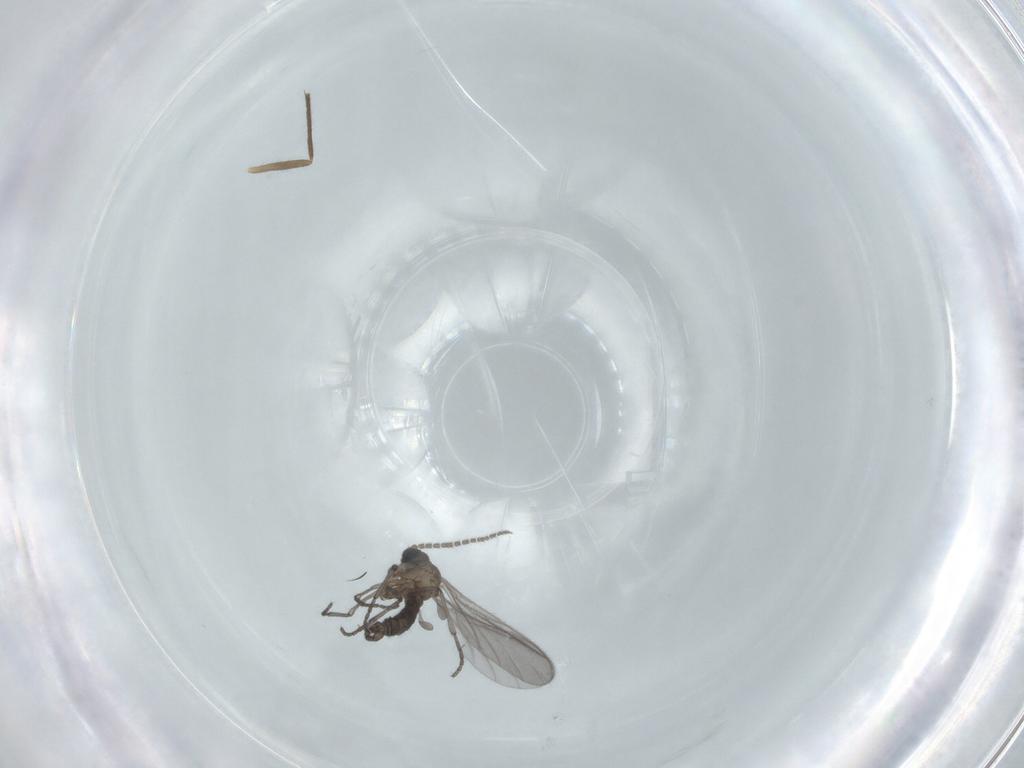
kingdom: Animalia
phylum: Arthropoda
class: Insecta
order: Diptera
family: Sciaridae
